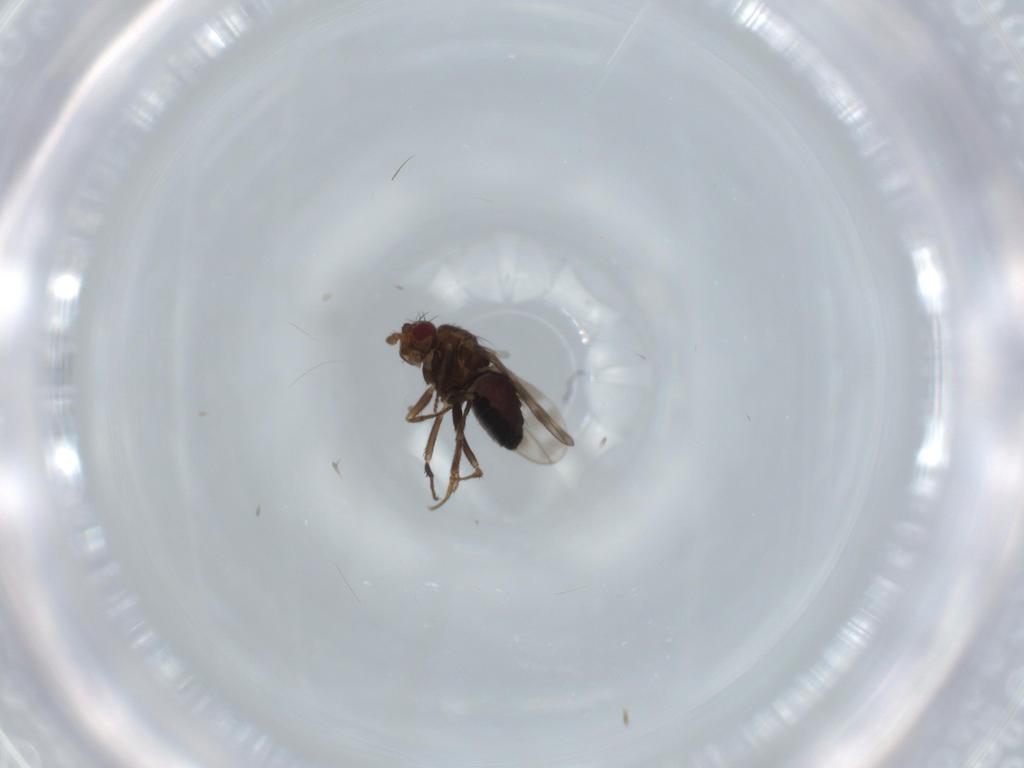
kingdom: Animalia
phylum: Arthropoda
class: Insecta
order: Diptera
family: Sphaeroceridae
